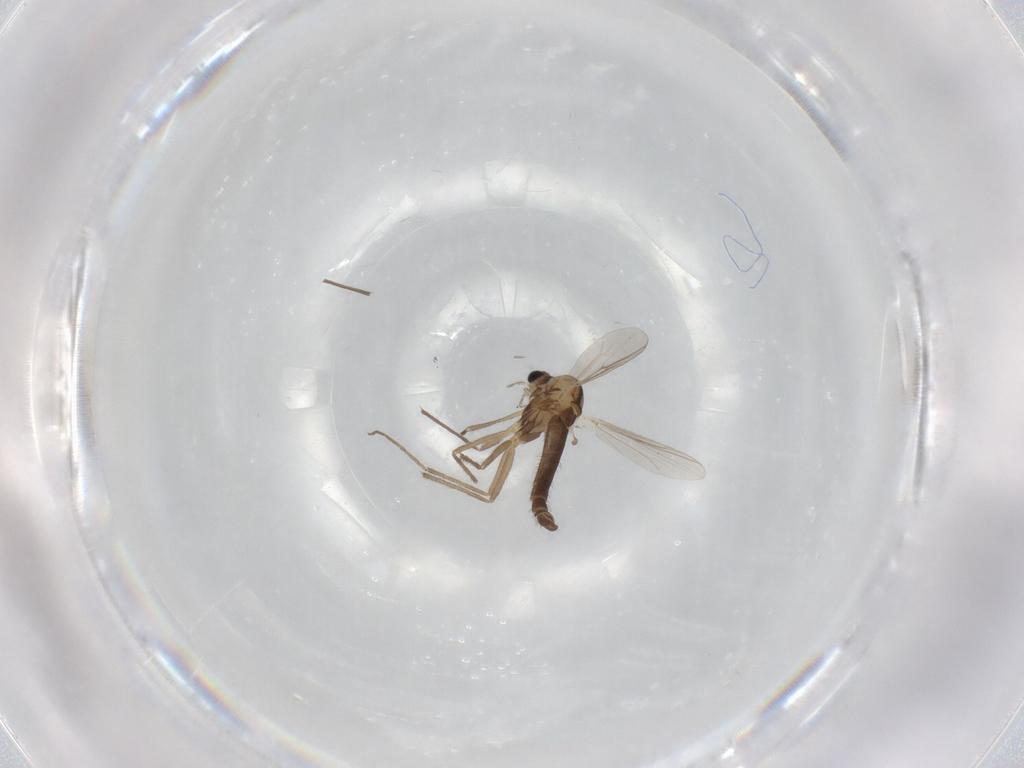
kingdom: Animalia
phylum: Arthropoda
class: Insecta
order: Diptera
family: Chironomidae
